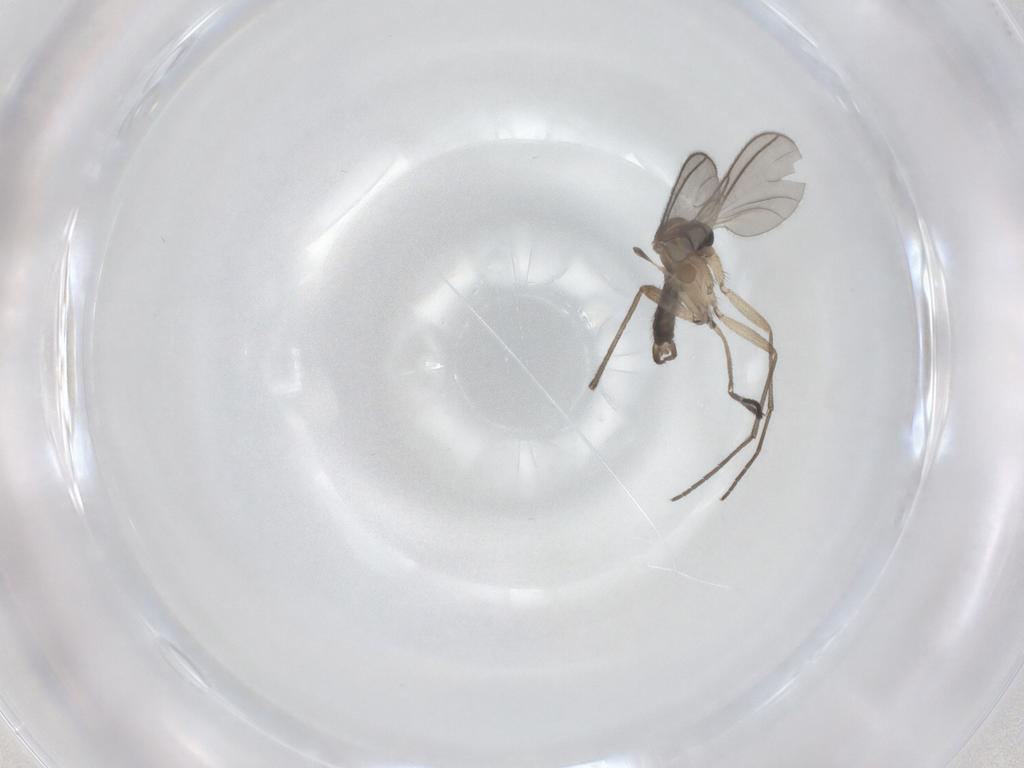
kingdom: Animalia
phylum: Arthropoda
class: Insecta
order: Diptera
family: Sciaridae
